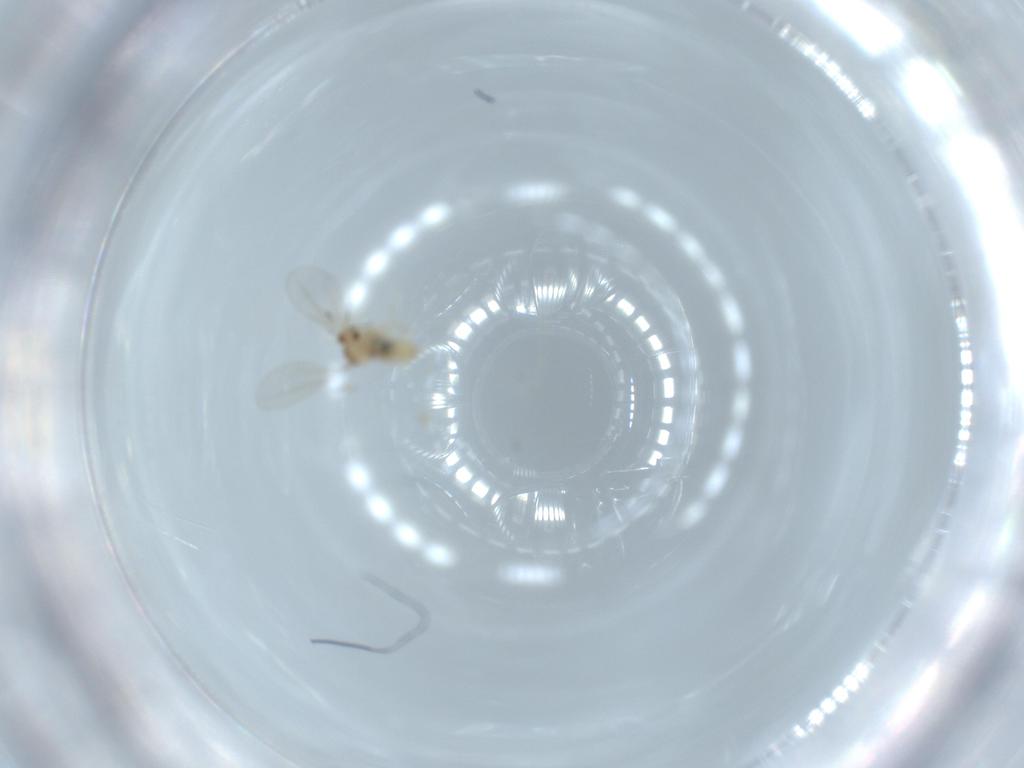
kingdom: Animalia
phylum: Arthropoda
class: Insecta
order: Diptera
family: Cecidomyiidae
